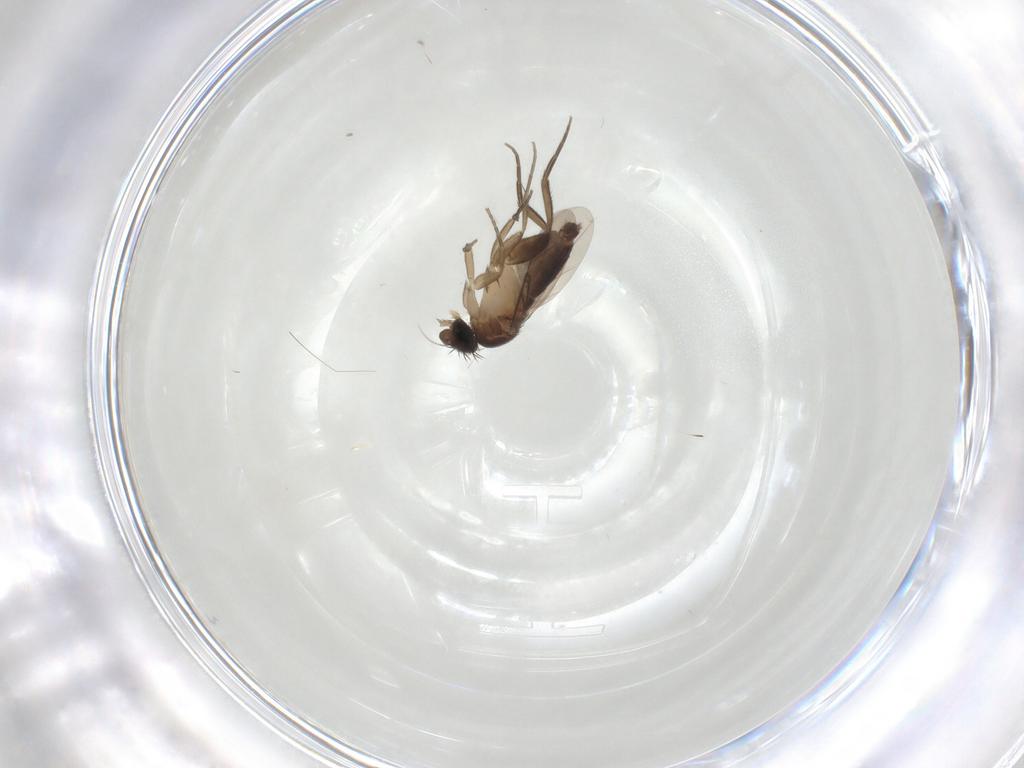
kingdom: Animalia
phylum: Arthropoda
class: Insecta
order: Diptera
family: Phoridae
